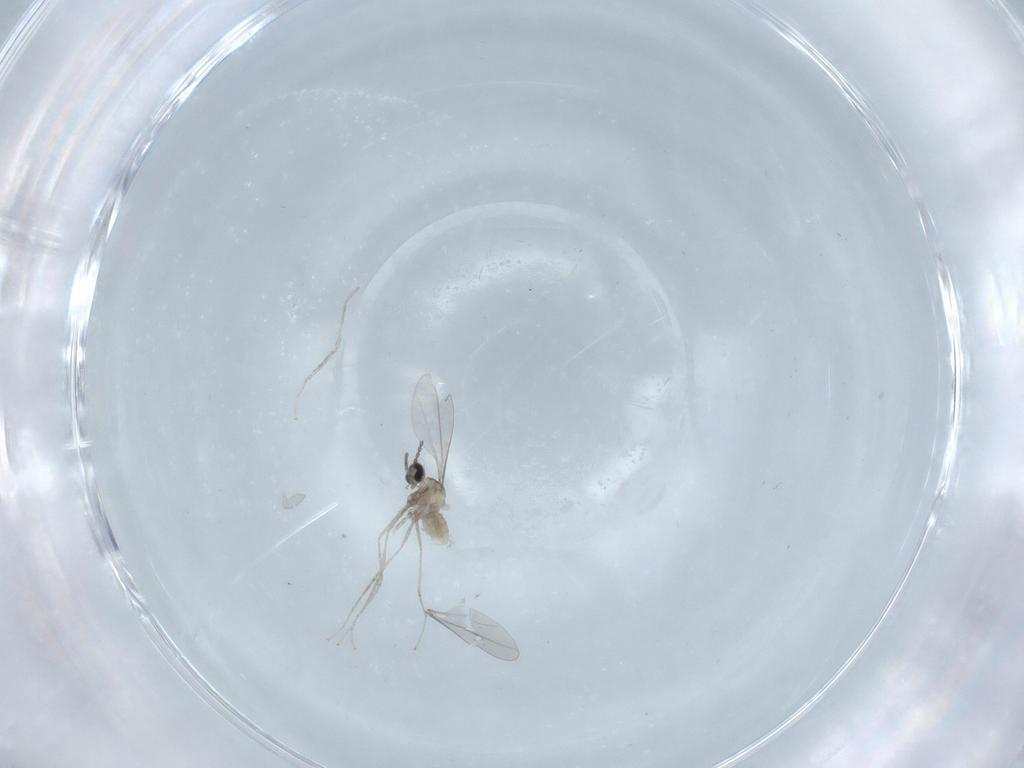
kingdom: Animalia
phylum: Arthropoda
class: Insecta
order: Diptera
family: Cecidomyiidae
